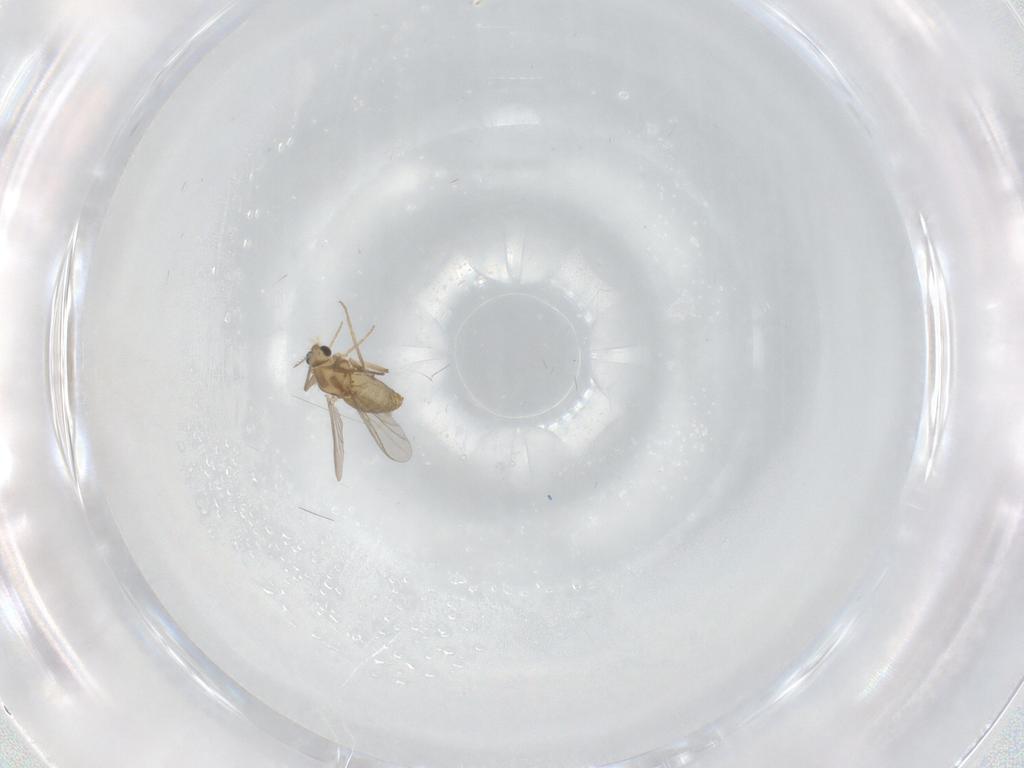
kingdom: Animalia
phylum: Arthropoda
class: Insecta
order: Diptera
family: Chironomidae
